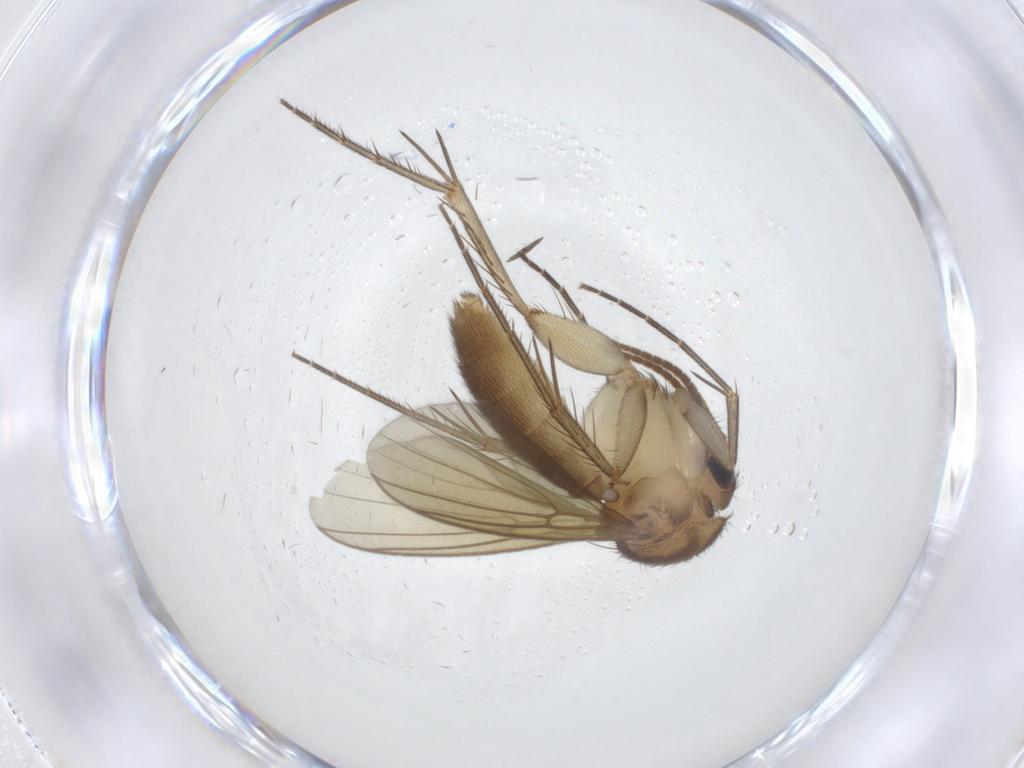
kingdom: Animalia
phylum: Arthropoda
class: Insecta
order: Diptera
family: Mycetophilidae
